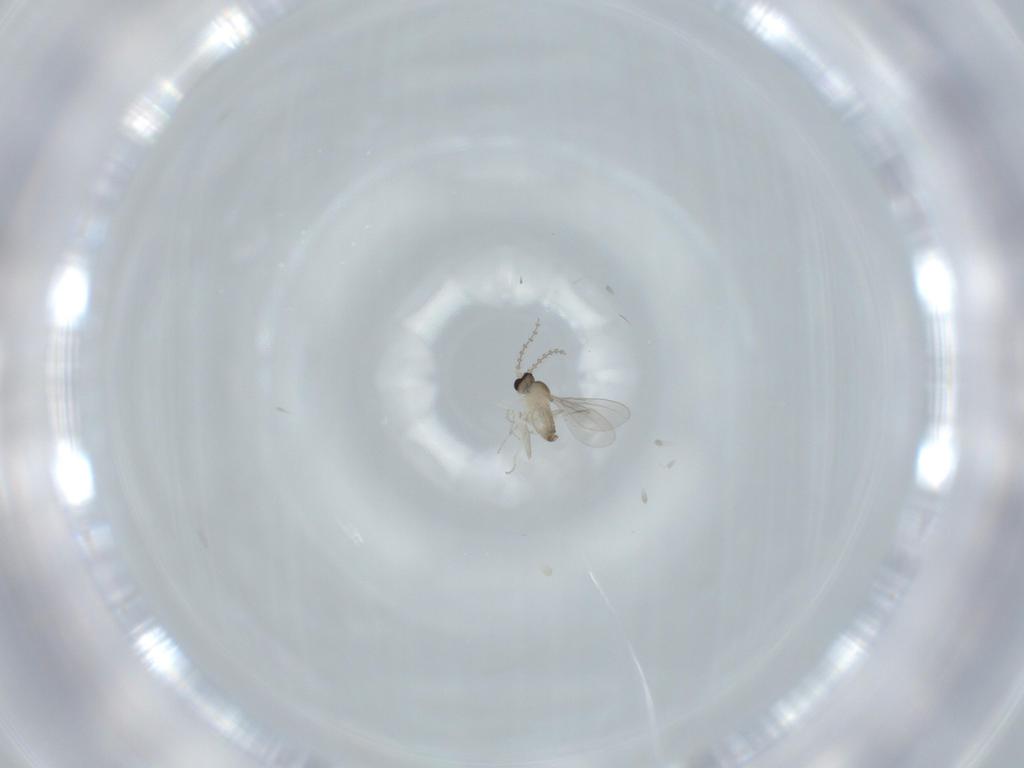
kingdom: Animalia
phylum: Arthropoda
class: Insecta
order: Diptera
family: Cecidomyiidae
